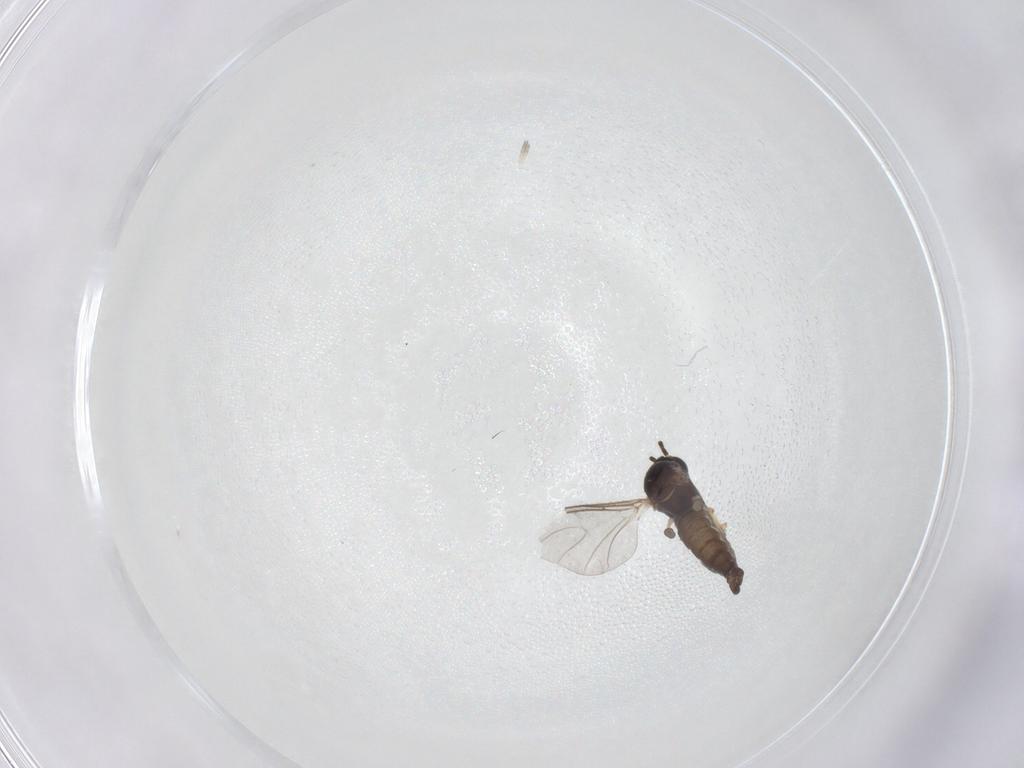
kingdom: Animalia
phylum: Arthropoda
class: Insecta
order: Diptera
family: Sciaridae
